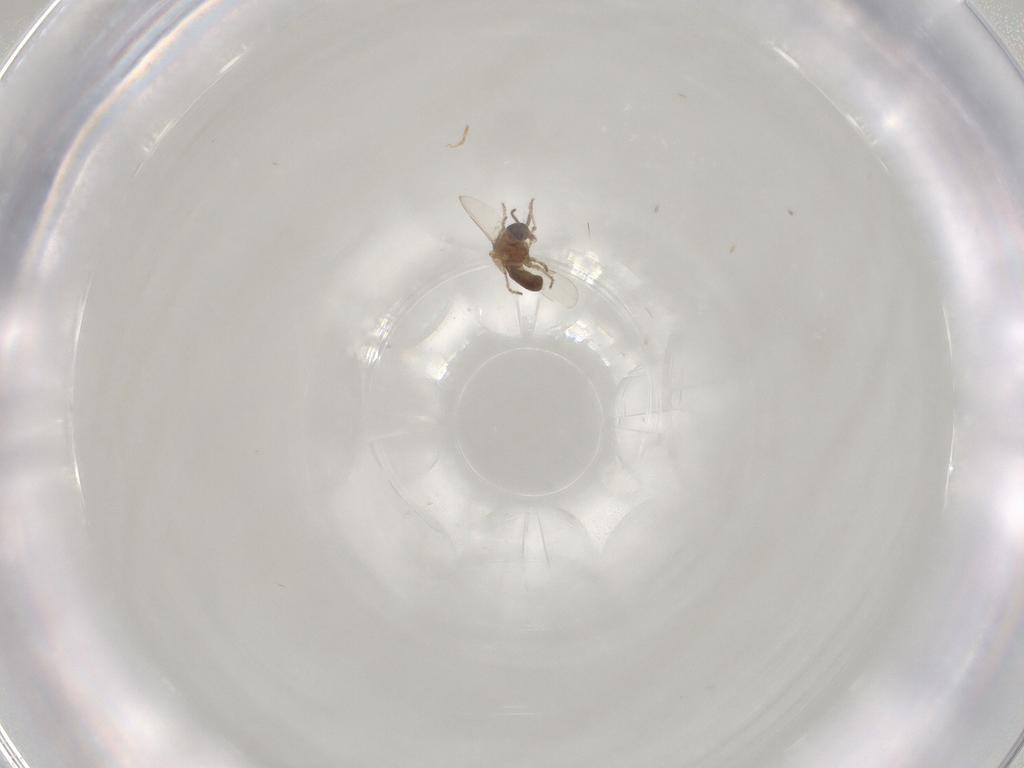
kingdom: Animalia
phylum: Arthropoda
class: Insecta
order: Diptera
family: Ceratopogonidae
